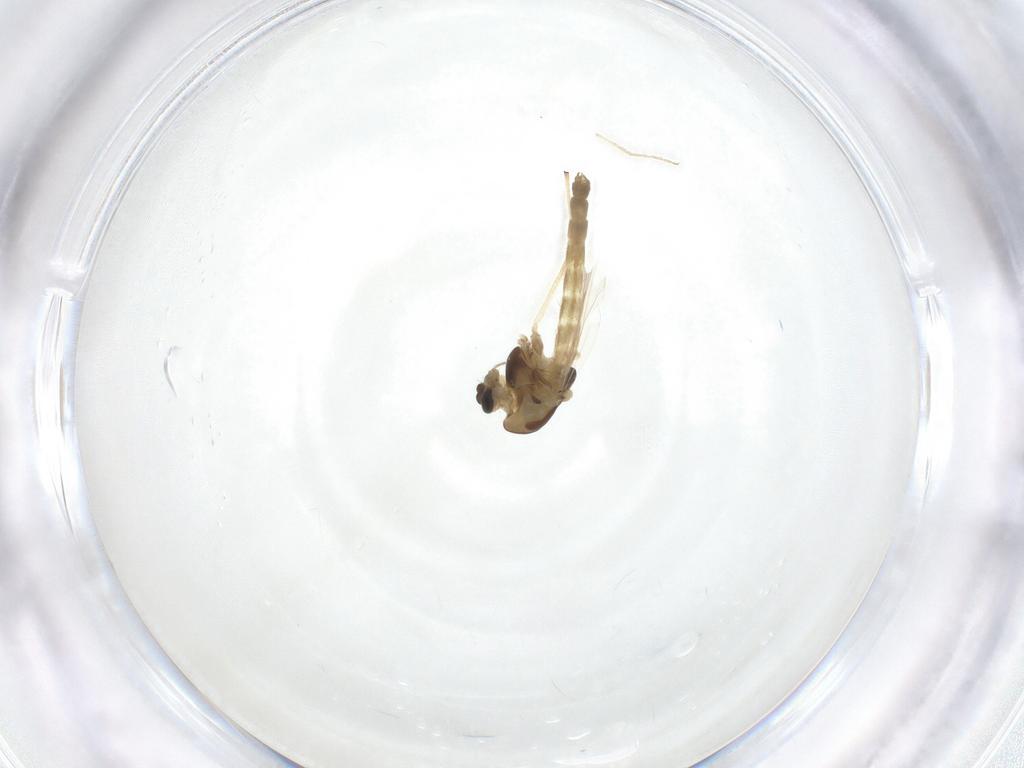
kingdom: Animalia
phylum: Arthropoda
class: Insecta
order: Diptera
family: Chironomidae
